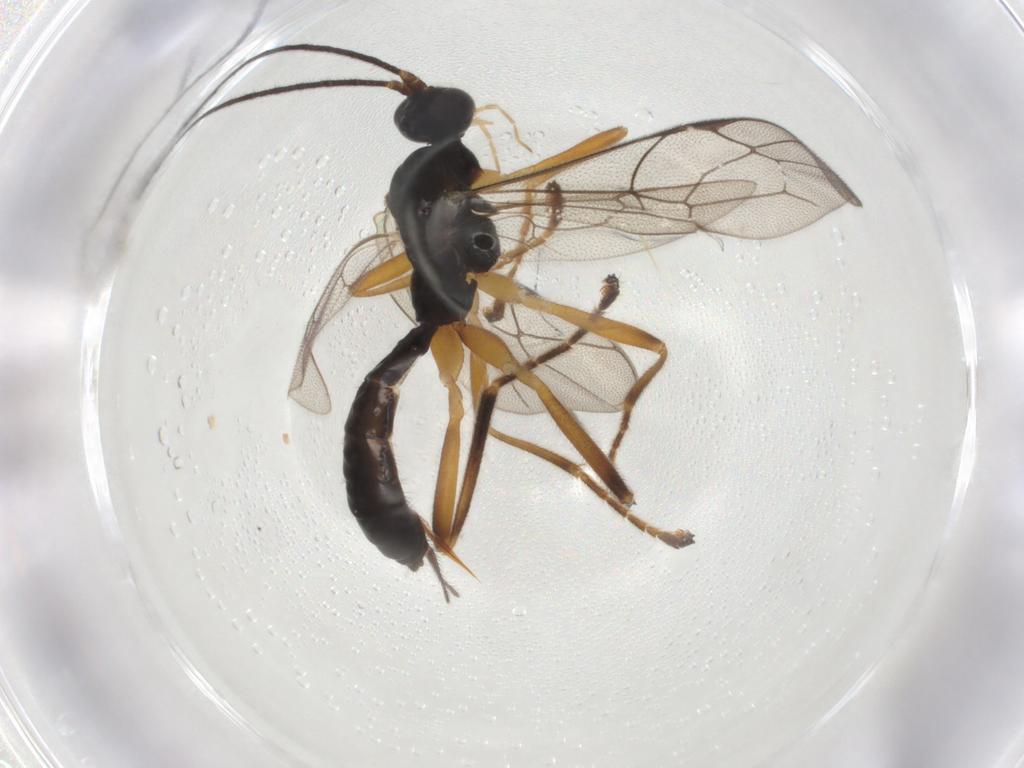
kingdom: Animalia
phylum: Arthropoda
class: Insecta
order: Hymenoptera
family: Ichneumonidae
